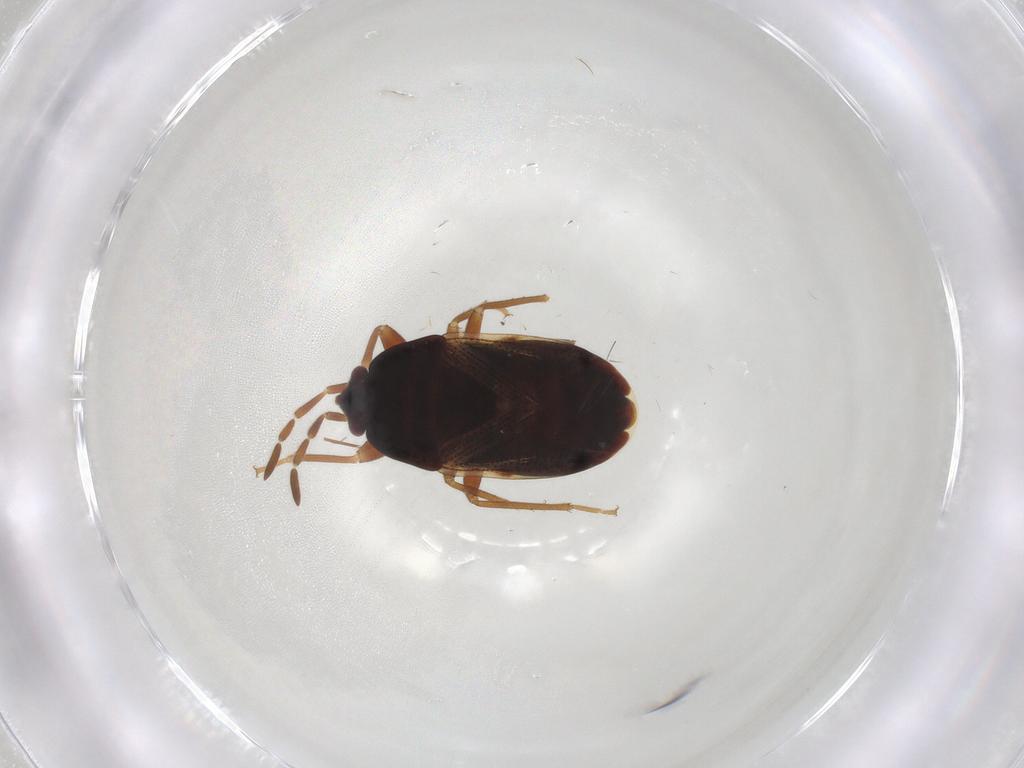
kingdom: Animalia
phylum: Arthropoda
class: Insecta
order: Hemiptera
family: Rhyparochromidae
